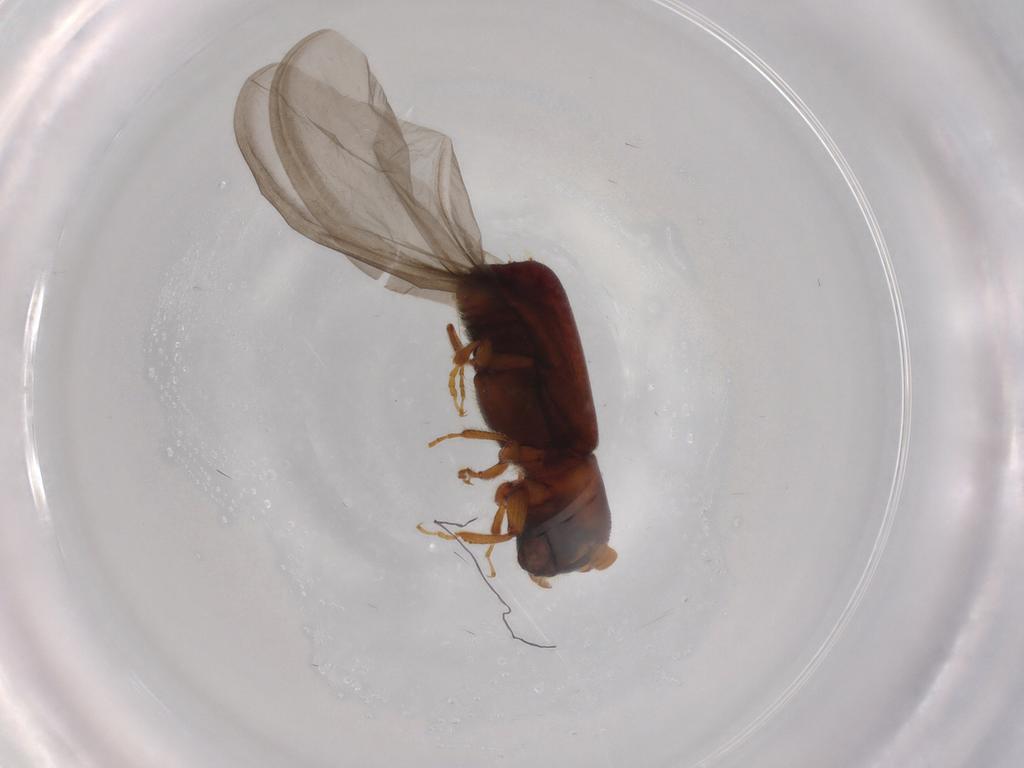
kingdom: Animalia
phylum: Arthropoda
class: Insecta
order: Coleoptera
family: Curculionidae
